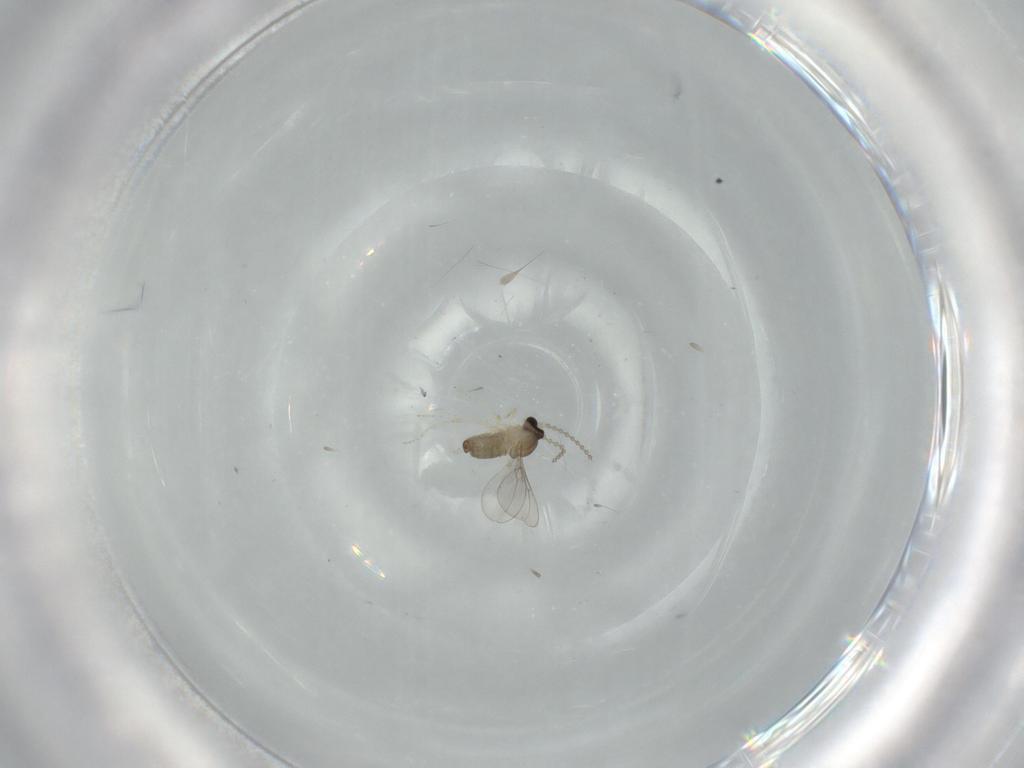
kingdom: Animalia
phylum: Arthropoda
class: Insecta
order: Diptera
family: Cecidomyiidae
